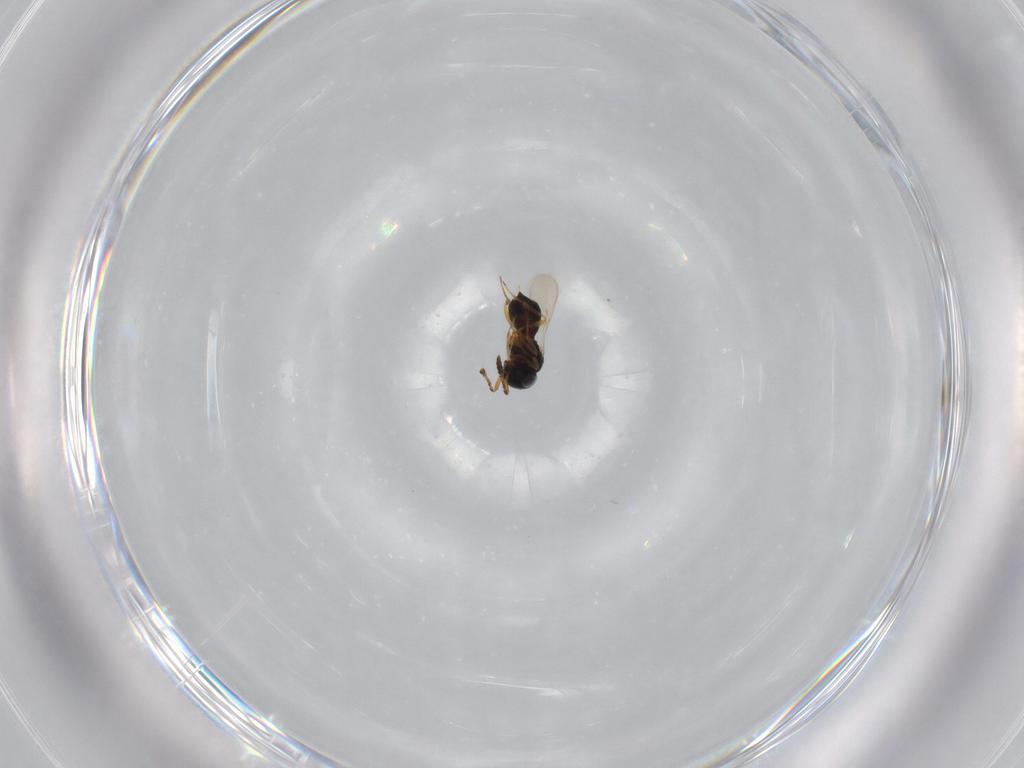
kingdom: Animalia
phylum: Arthropoda
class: Insecta
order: Hymenoptera
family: Scelionidae
